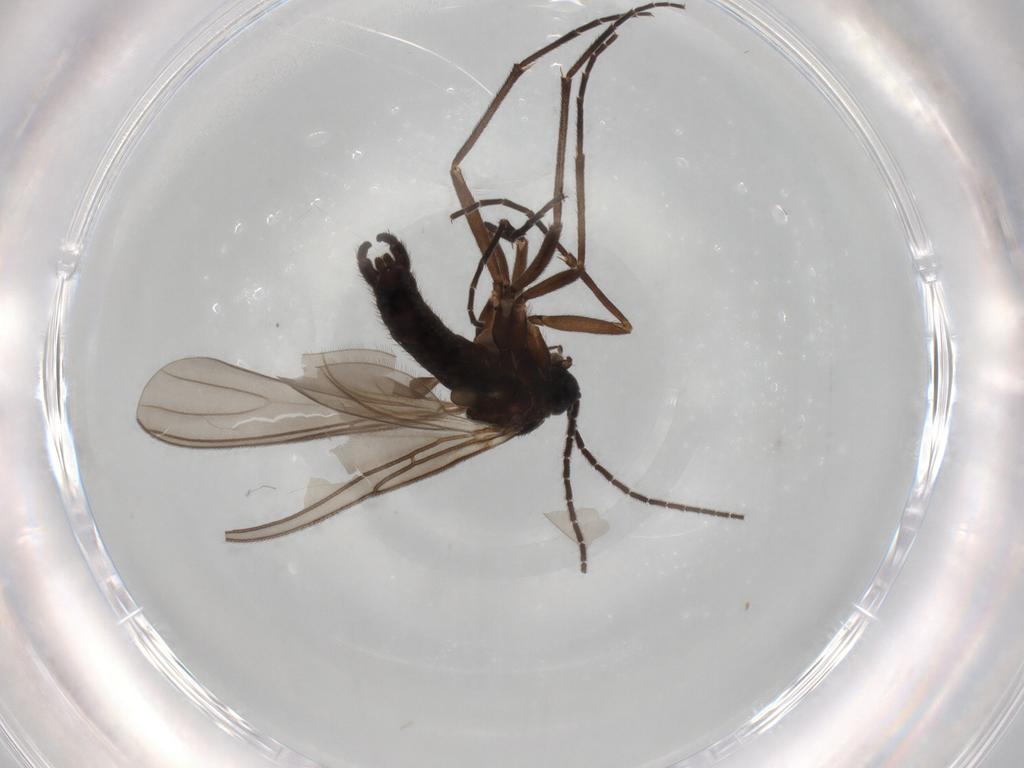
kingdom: Animalia
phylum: Arthropoda
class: Insecta
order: Diptera
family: Sciaridae
